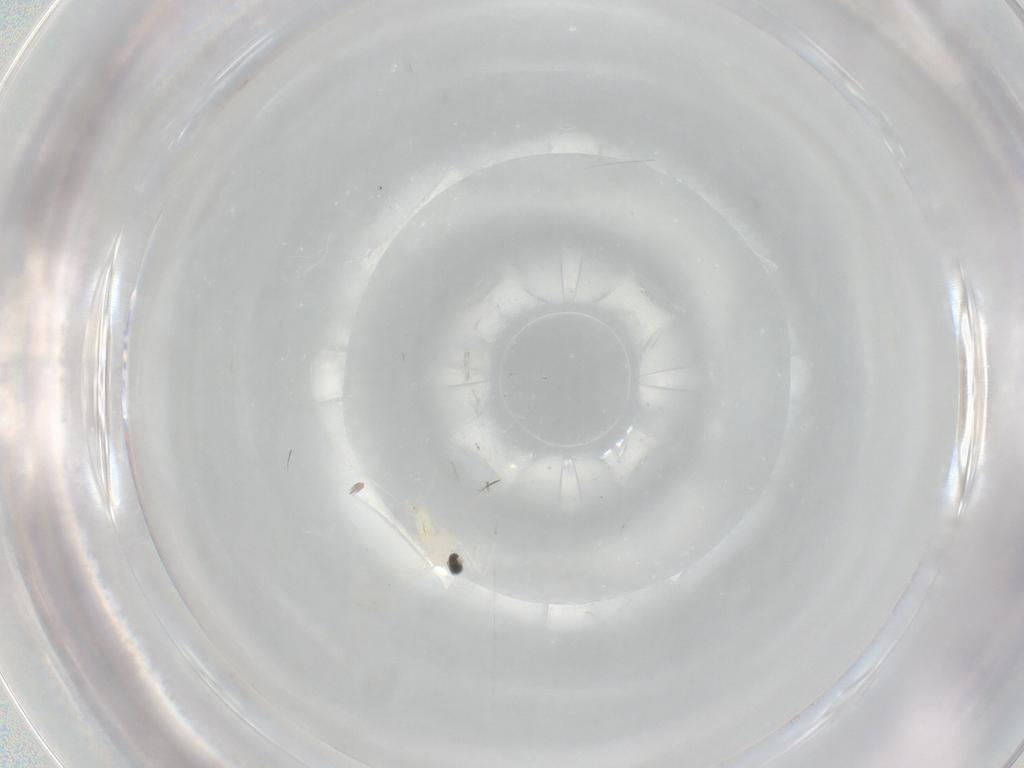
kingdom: Animalia
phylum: Arthropoda
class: Insecta
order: Diptera
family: Cecidomyiidae
